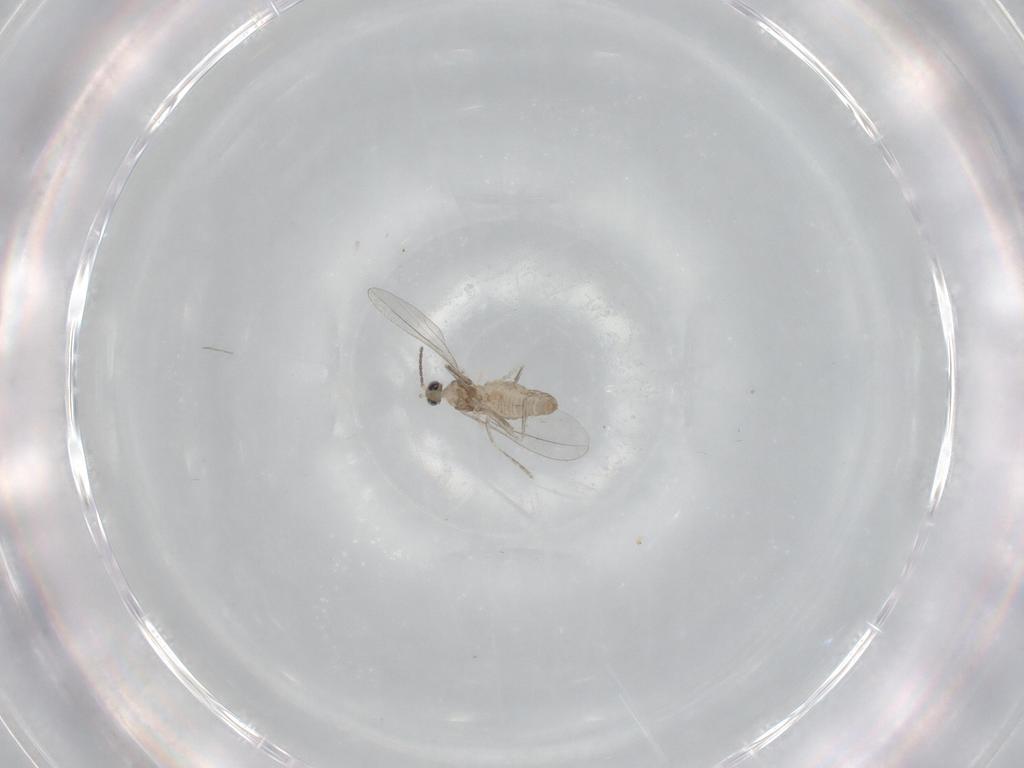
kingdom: Animalia
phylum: Arthropoda
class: Insecta
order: Diptera
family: Cecidomyiidae
